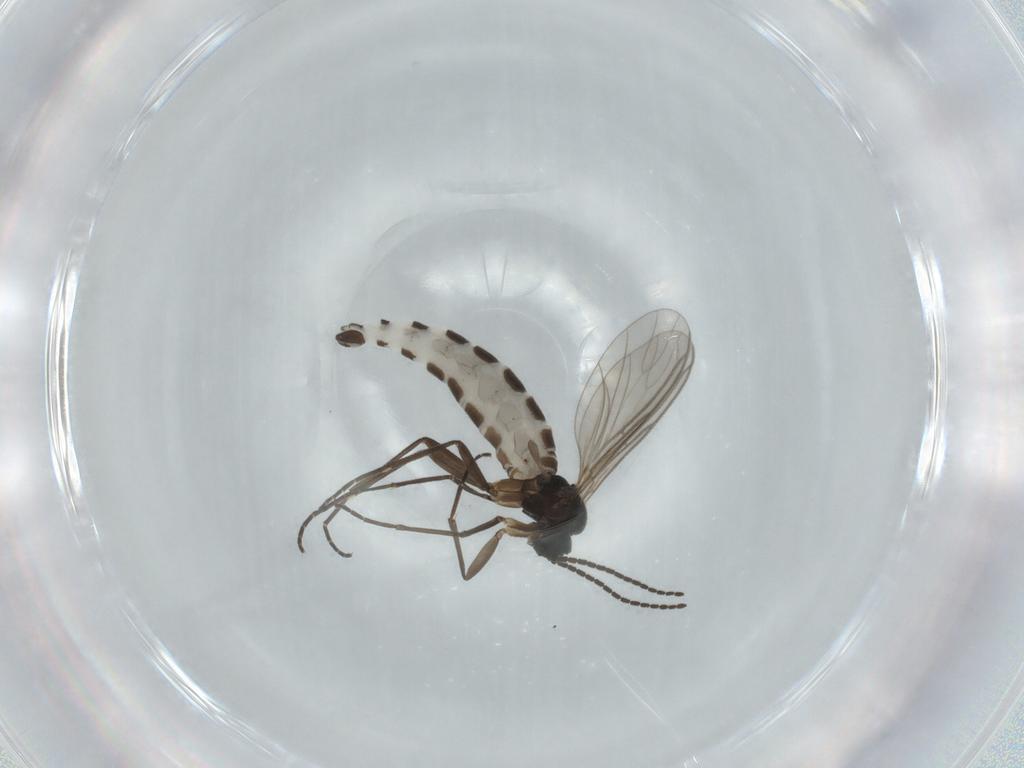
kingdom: Animalia
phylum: Arthropoda
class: Insecta
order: Diptera
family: Sciaridae
